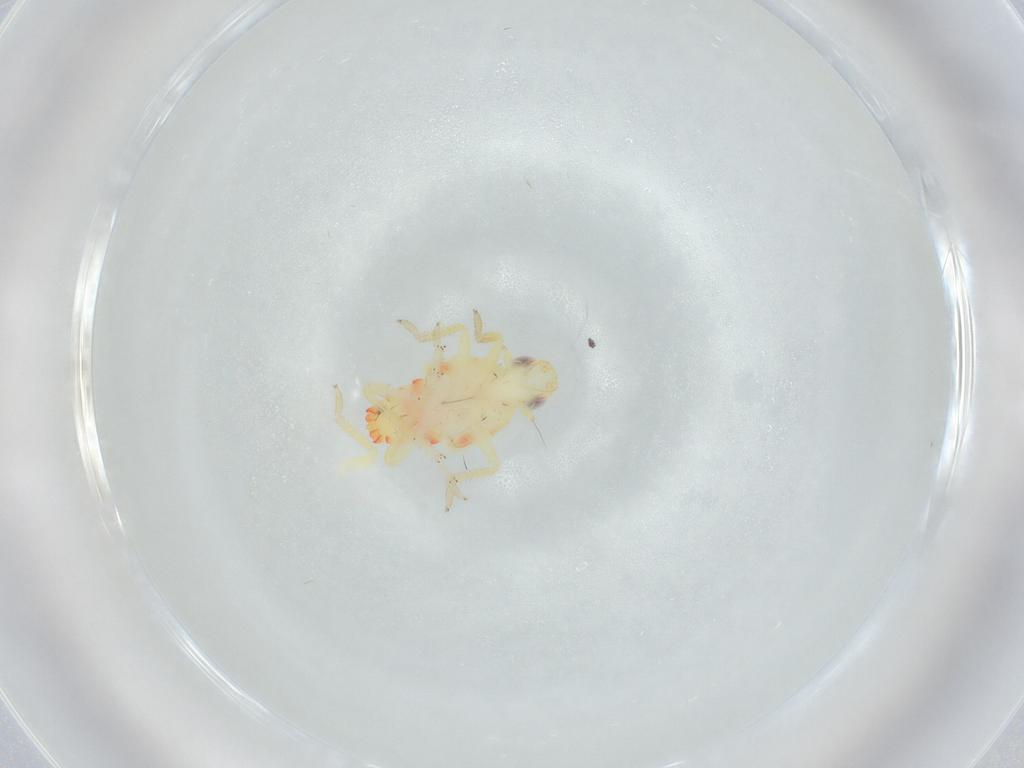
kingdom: Animalia
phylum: Arthropoda
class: Insecta
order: Hemiptera
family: Tropiduchidae
